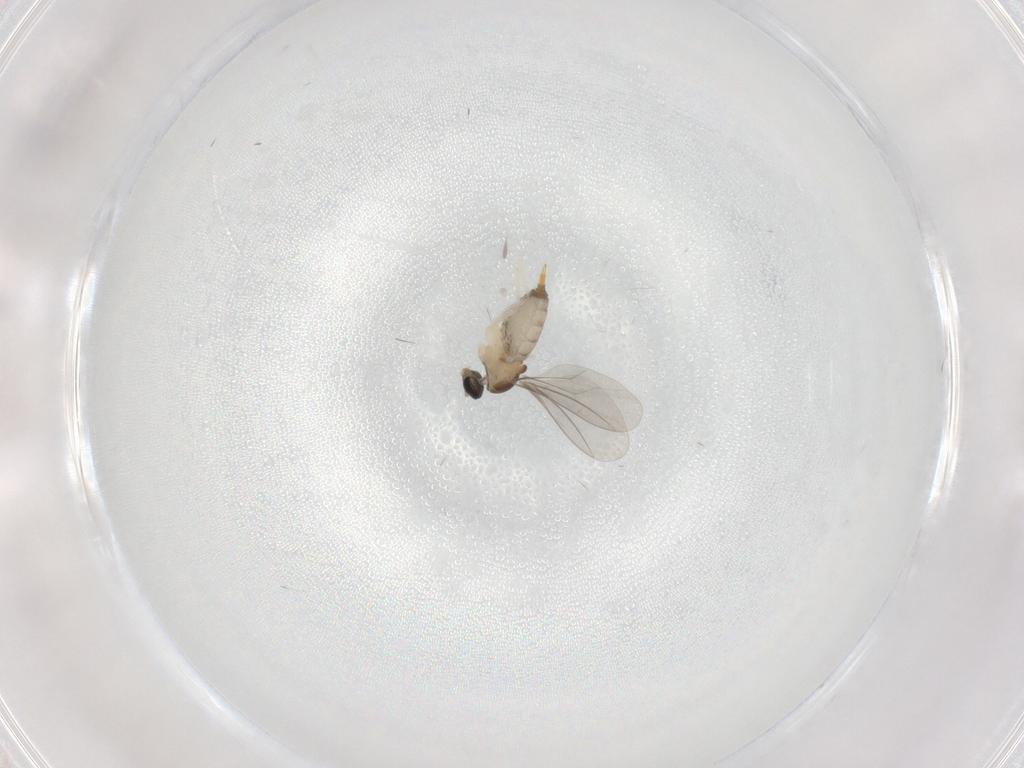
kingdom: Animalia
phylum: Arthropoda
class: Insecta
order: Diptera
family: Cecidomyiidae
